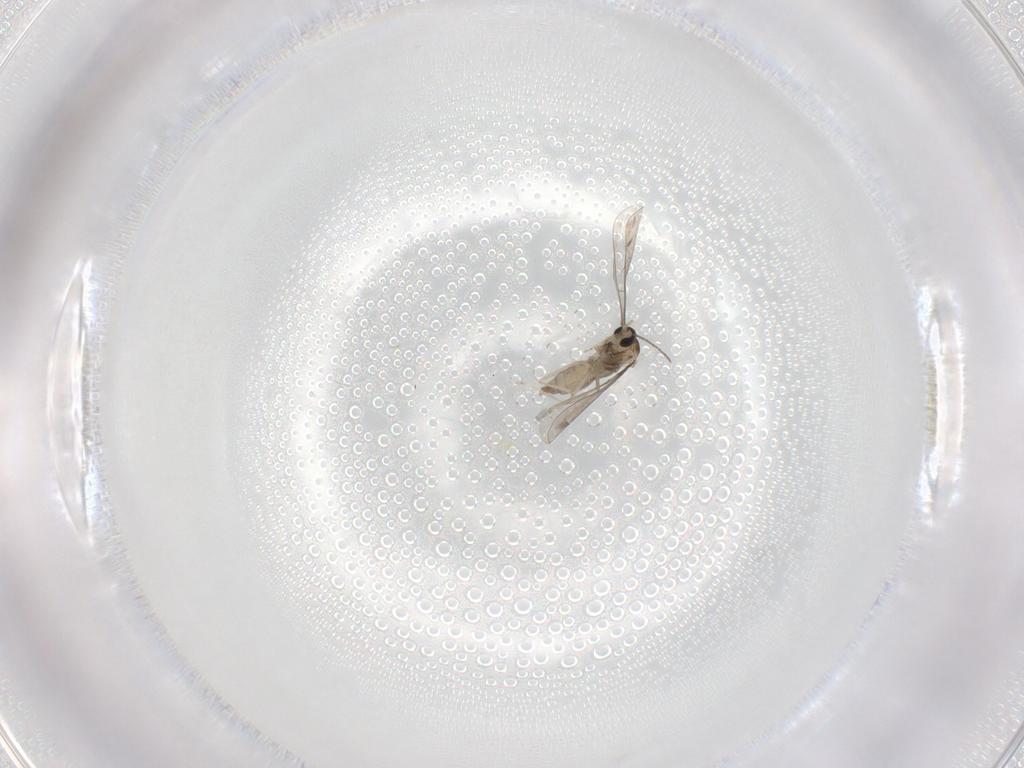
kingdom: Animalia
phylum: Arthropoda
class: Insecta
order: Diptera
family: Cecidomyiidae
